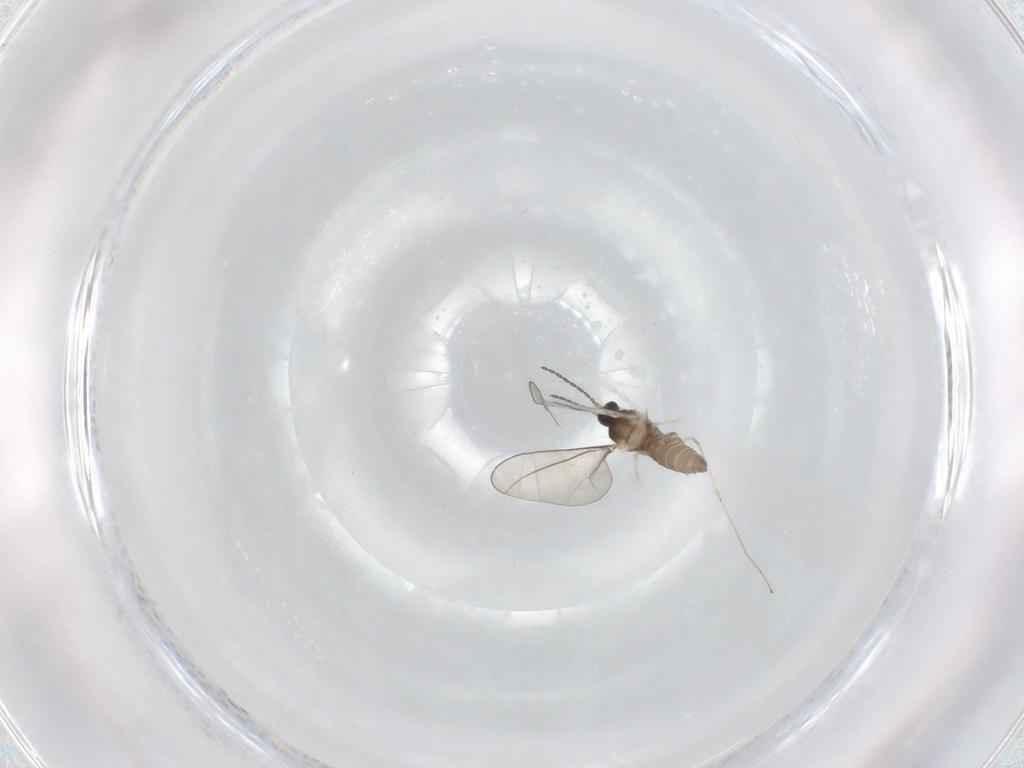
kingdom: Animalia
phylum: Arthropoda
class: Insecta
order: Diptera
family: Cecidomyiidae
